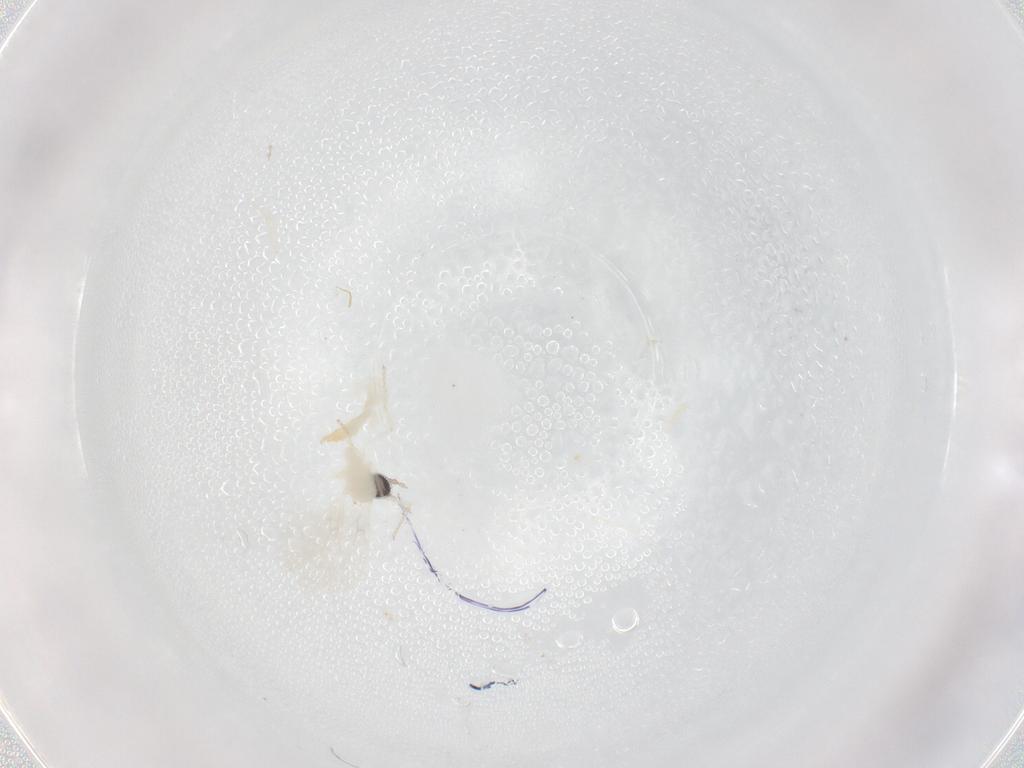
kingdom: Animalia
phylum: Arthropoda
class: Insecta
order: Diptera
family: Cecidomyiidae
